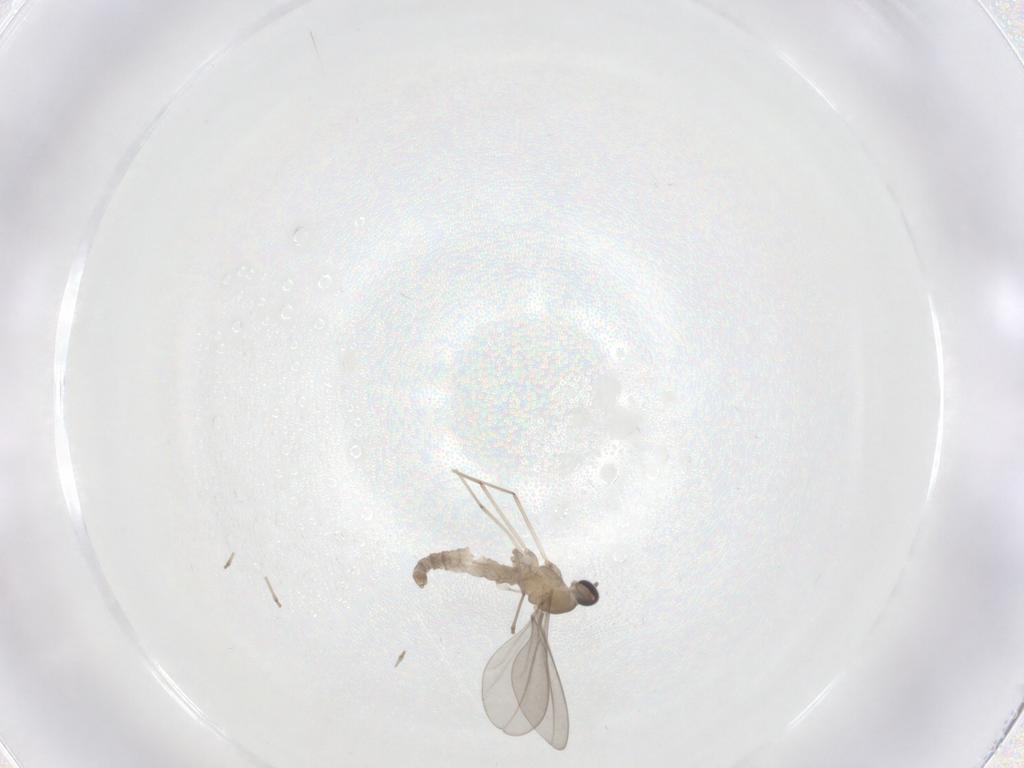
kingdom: Animalia
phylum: Arthropoda
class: Insecta
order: Diptera
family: Cecidomyiidae
